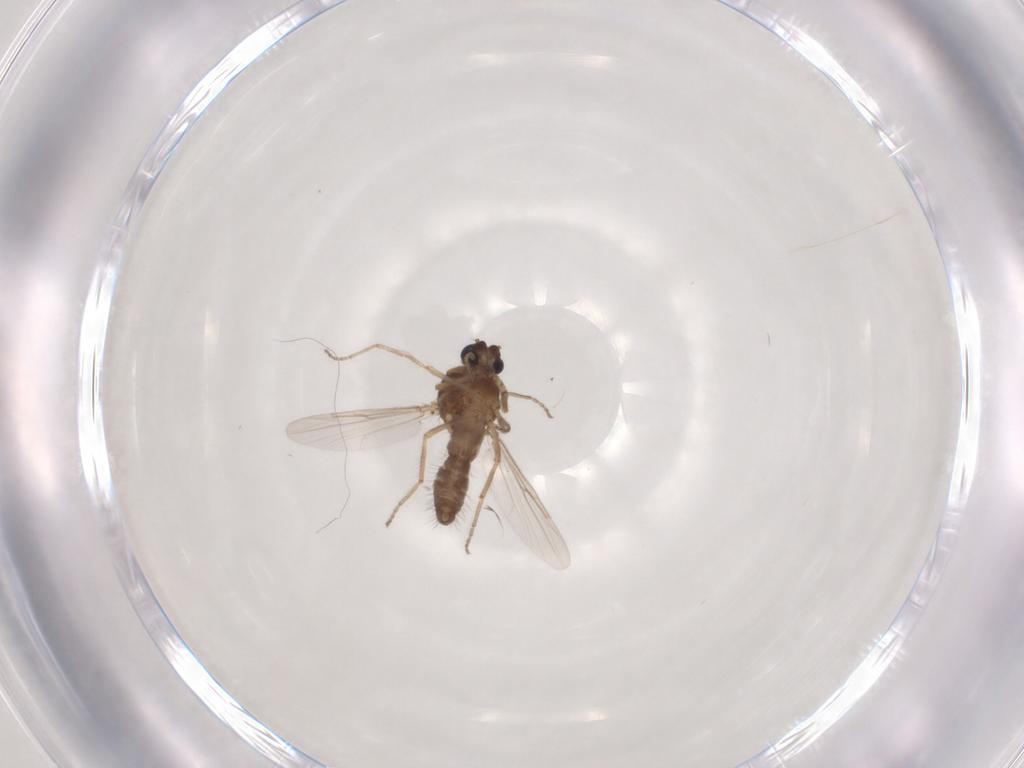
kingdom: Animalia
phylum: Arthropoda
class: Insecta
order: Diptera
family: Ceratopogonidae
